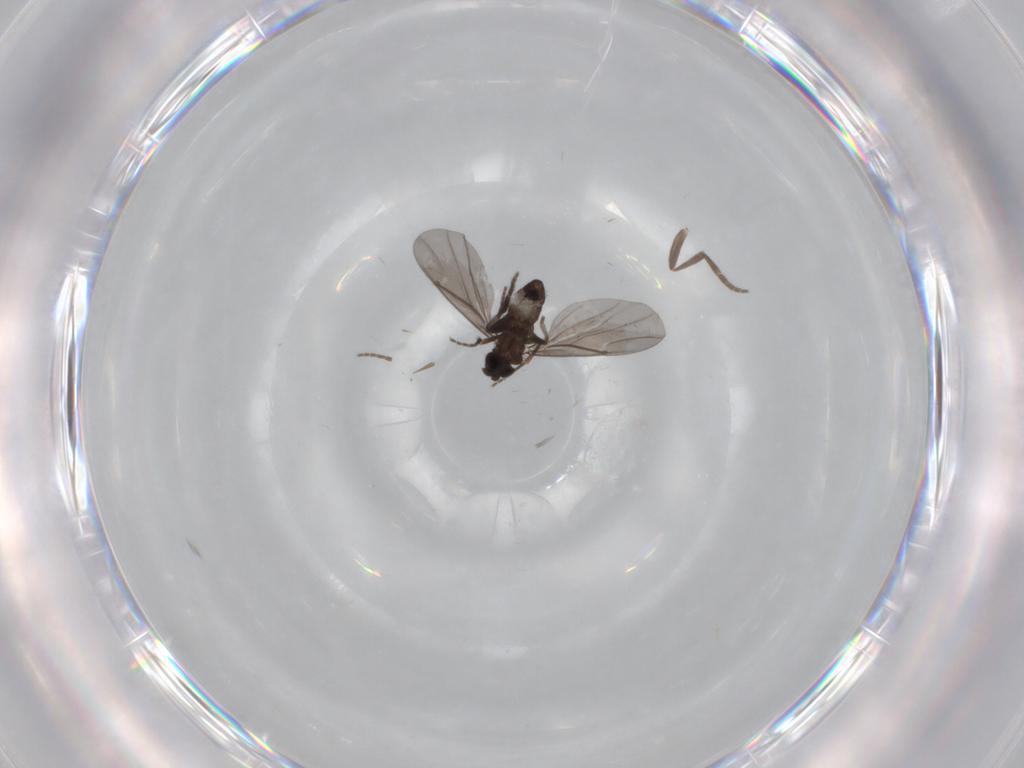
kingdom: Animalia
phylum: Arthropoda
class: Insecta
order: Diptera
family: Phoridae
